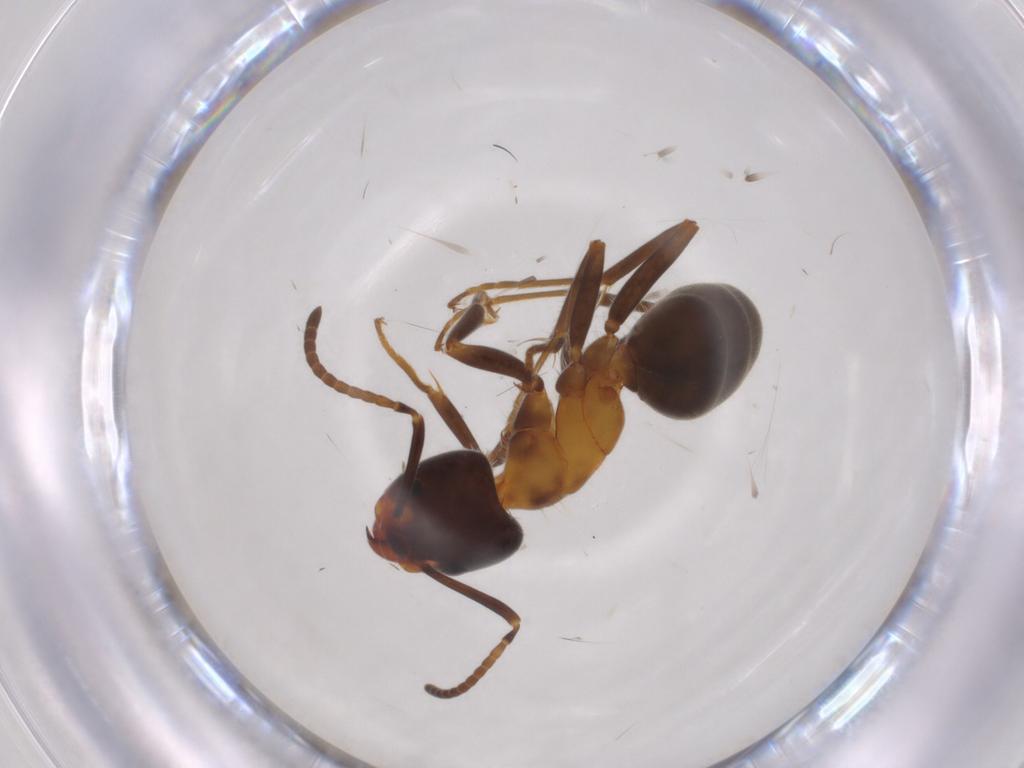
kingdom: Animalia
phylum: Arthropoda
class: Insecta
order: Hymenoptera
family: Formicidae
